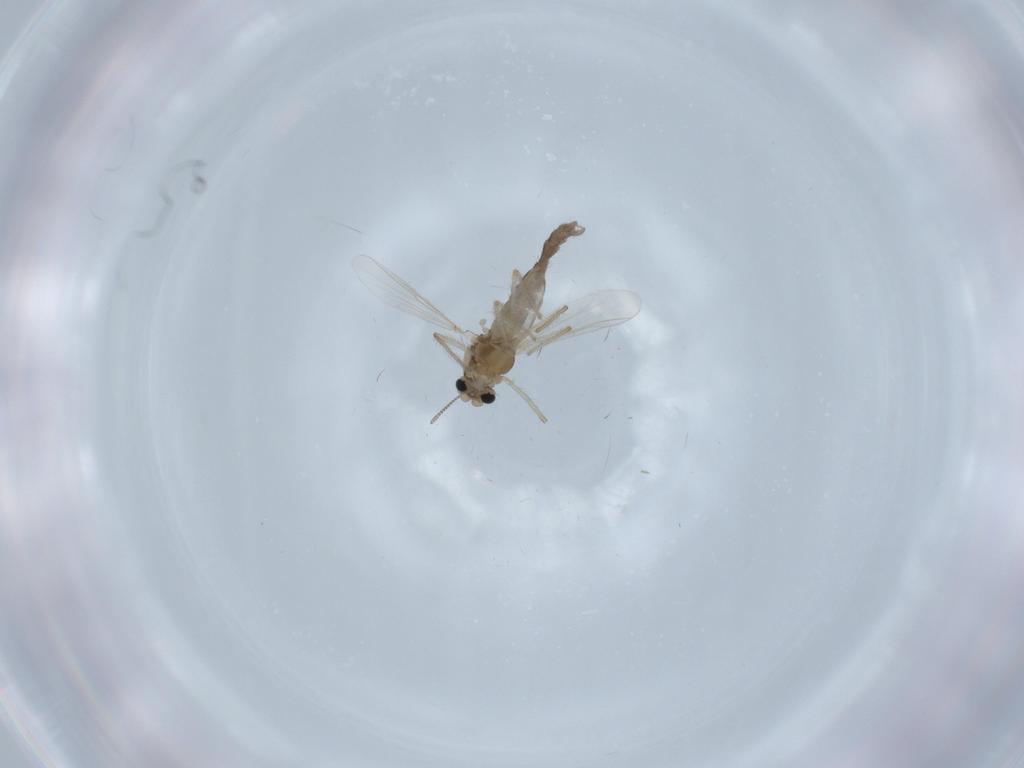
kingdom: Animalia
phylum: Arthropoda
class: Insecta
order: Diptera
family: Chironomidae
